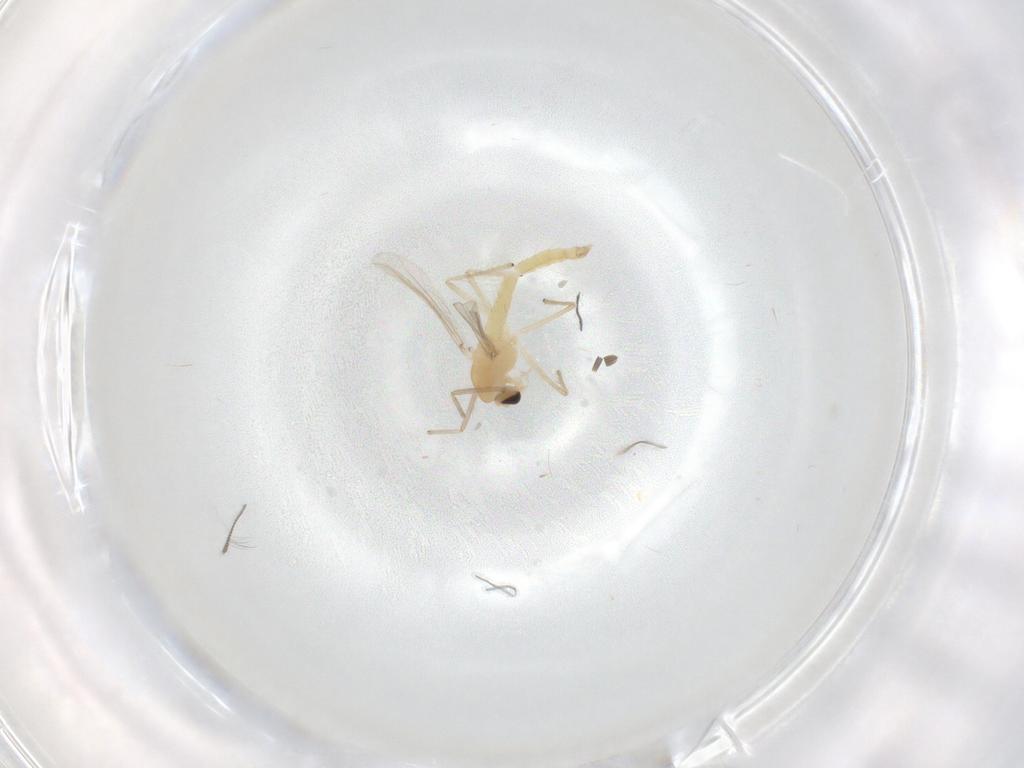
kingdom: Animalia
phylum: Arthropoda
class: Insecta
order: Diptera
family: Chironomidae
